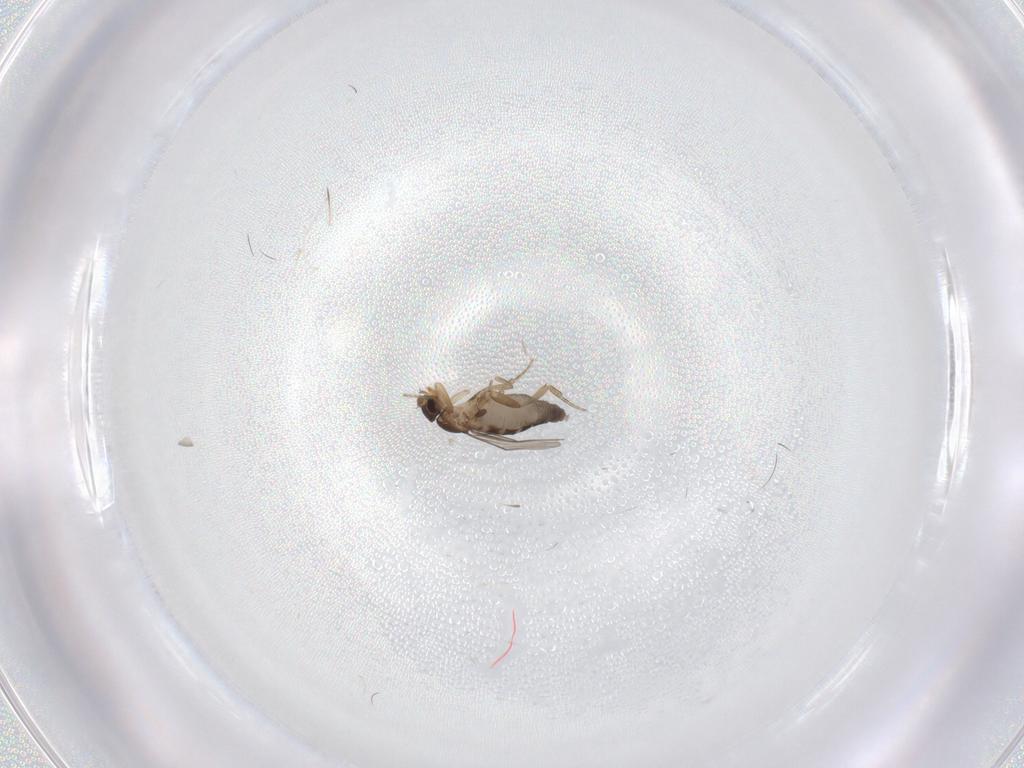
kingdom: Animalia
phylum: Arthropoda
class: Insecta
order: Diptera
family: Phoridae
